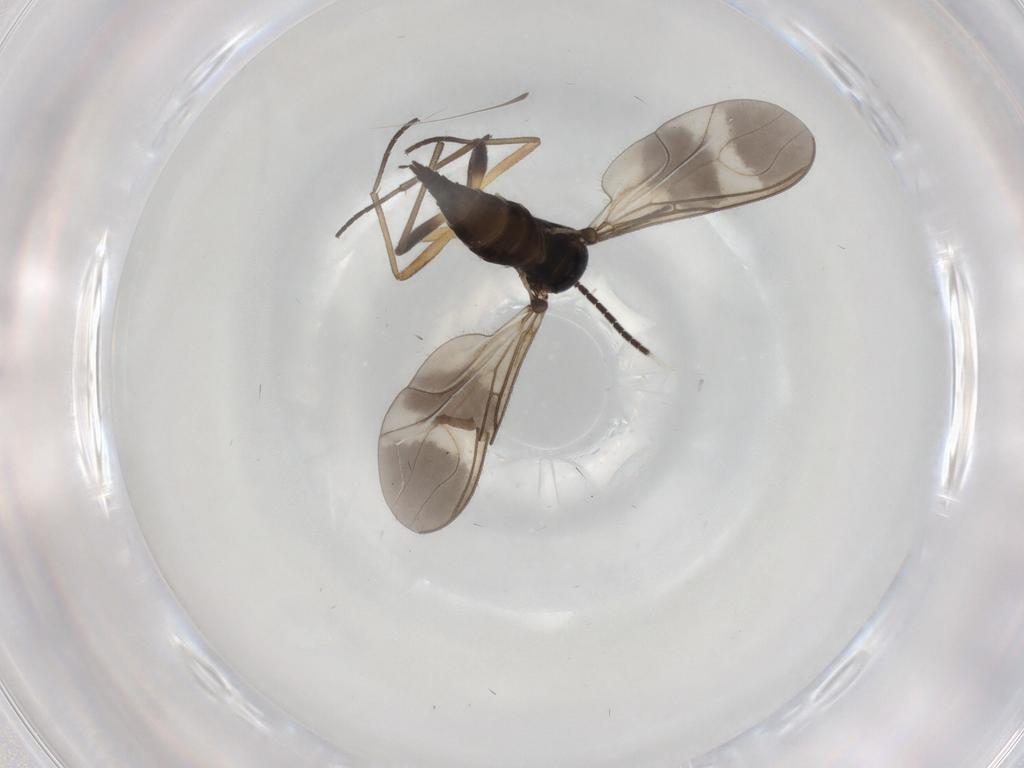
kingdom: Animalia
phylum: Arthropoda
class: Insecta
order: Diptera
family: Sciaridae
